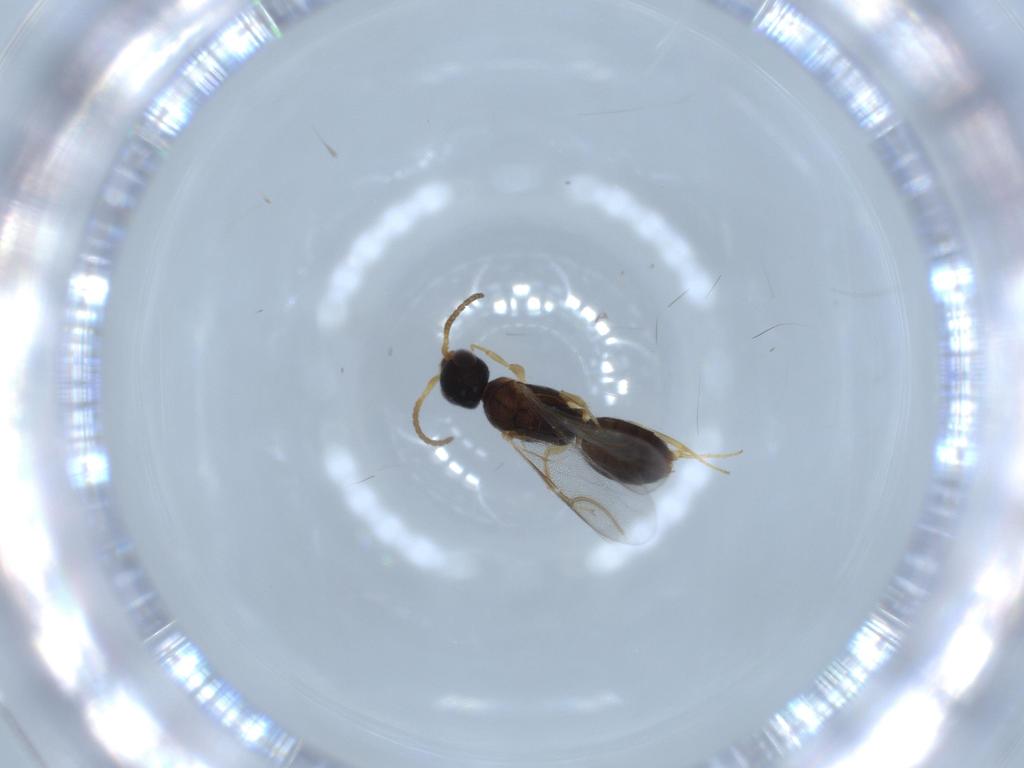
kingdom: Animalia
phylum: Arthropoda
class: Insecta
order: Hymenoptera
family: Bethylidae
